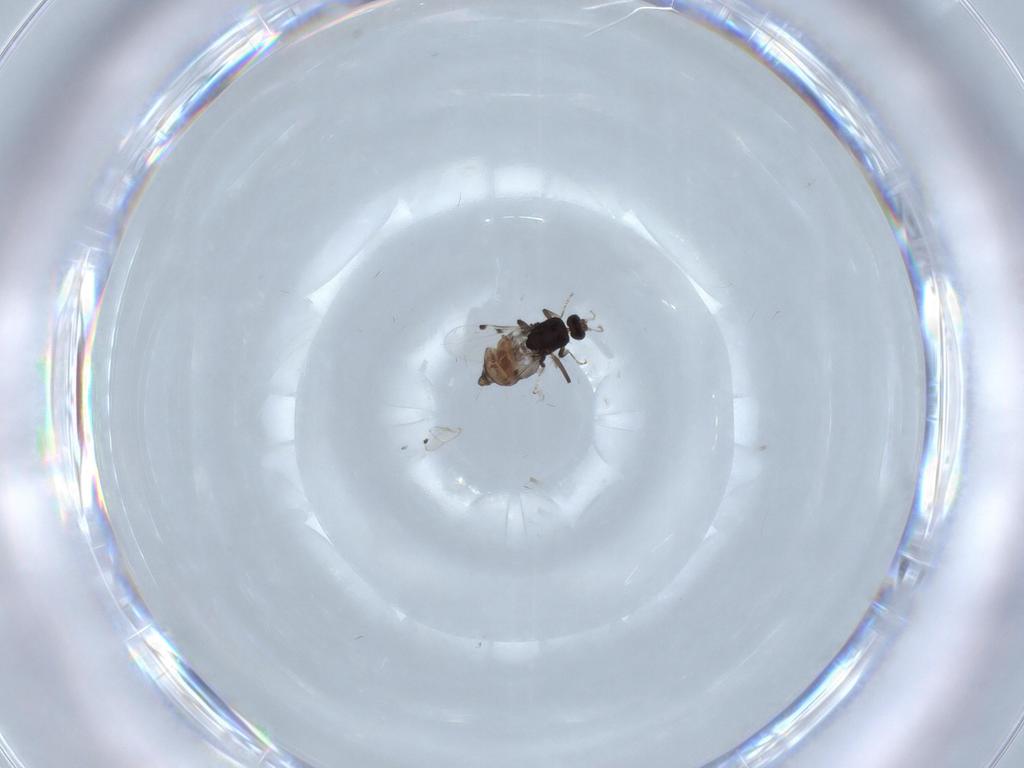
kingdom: Animalia
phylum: Arthropoda
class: Insecta
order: Diptera
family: Ceratopogonidae
